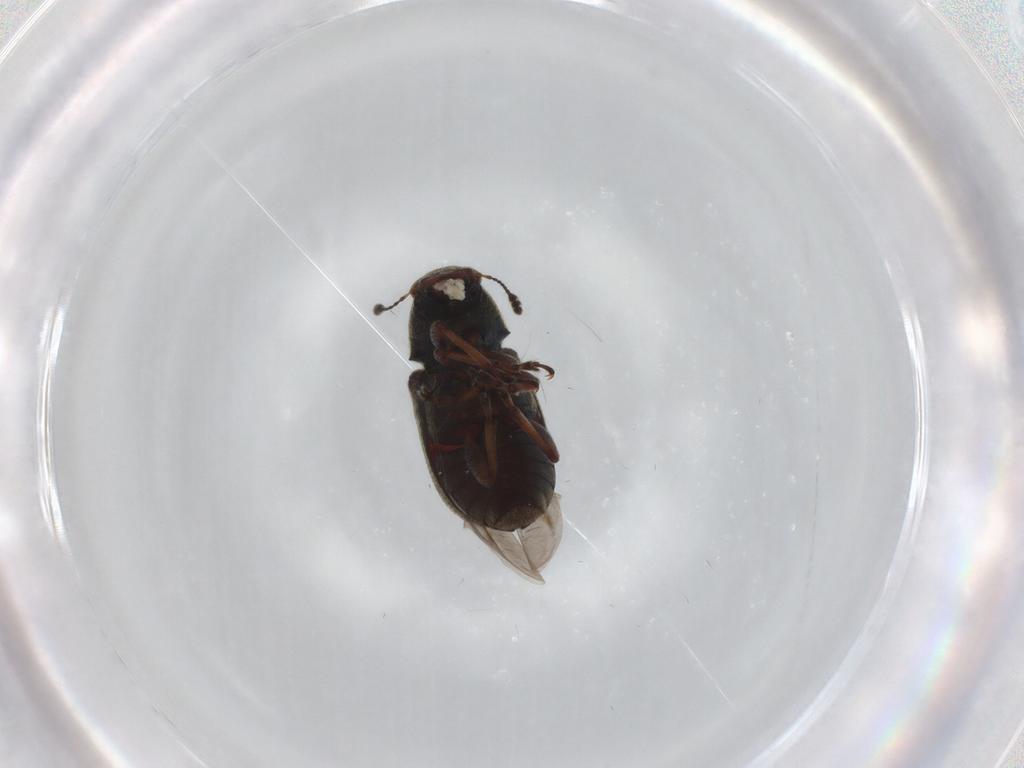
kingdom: Animalia
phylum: Arthropoda
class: Insecta
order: Coleoptera
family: Anthribidae
